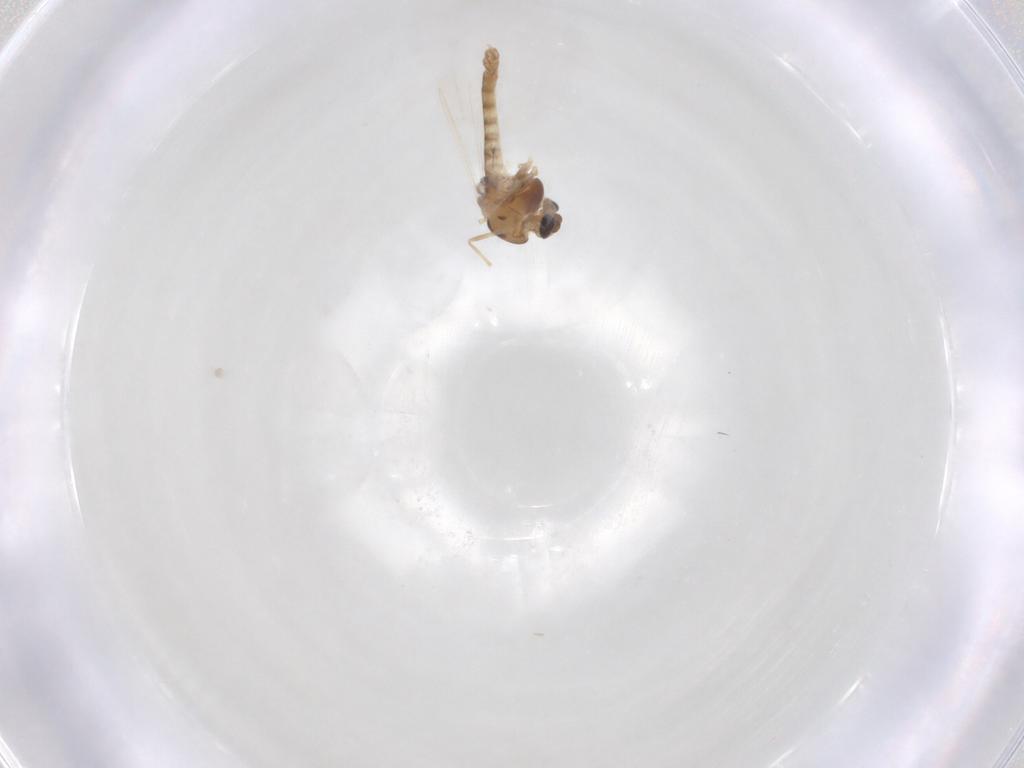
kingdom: Animalia
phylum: Arthropoda
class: Insecta
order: Diptera
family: Chironomidae
